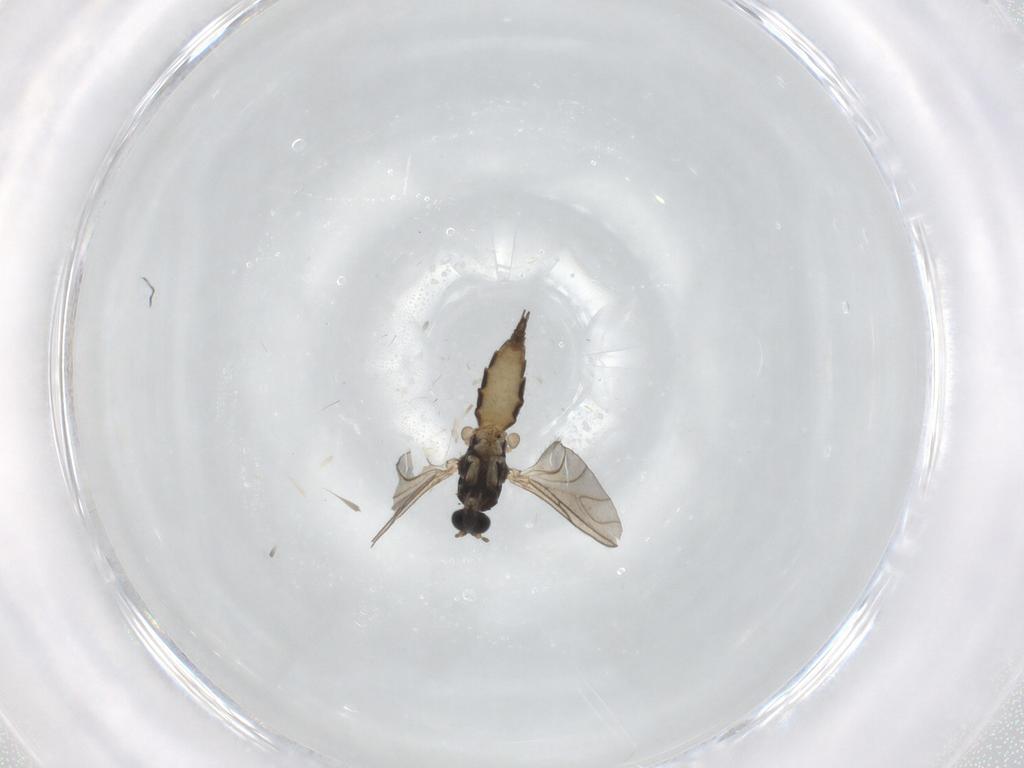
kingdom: Animalia
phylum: Arthropoda
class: Insecta
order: Diptera
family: Sciaridae
